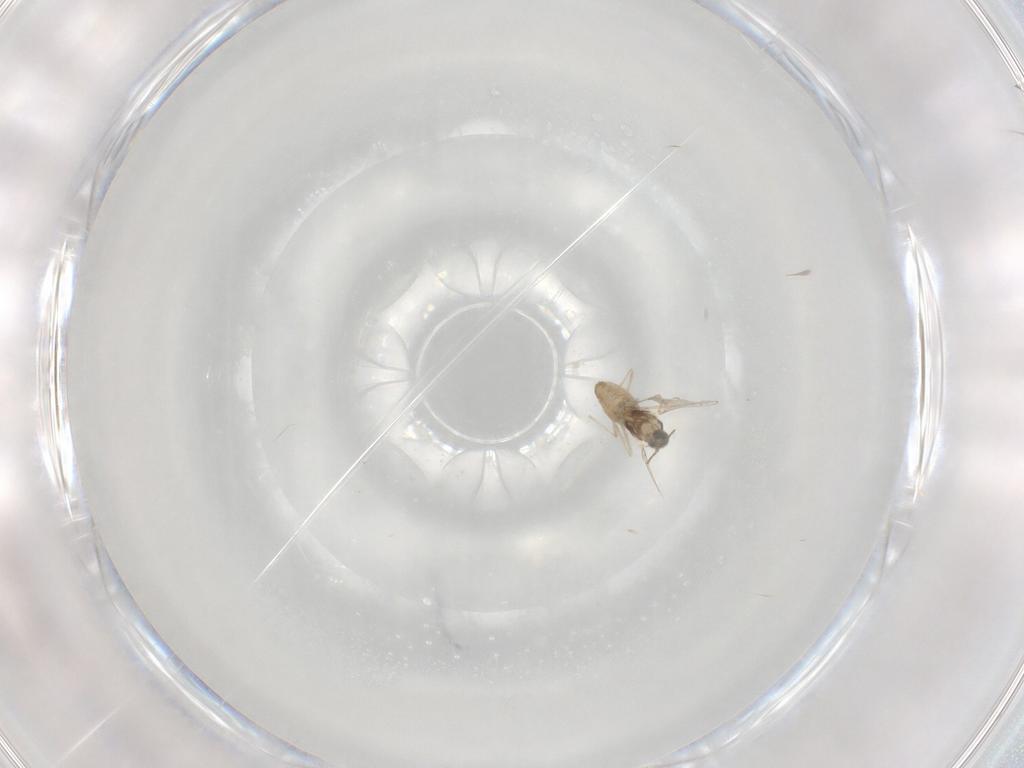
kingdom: Animalia
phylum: Arthropoda
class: Insecta
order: Diptera
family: Cecidomyiidae
